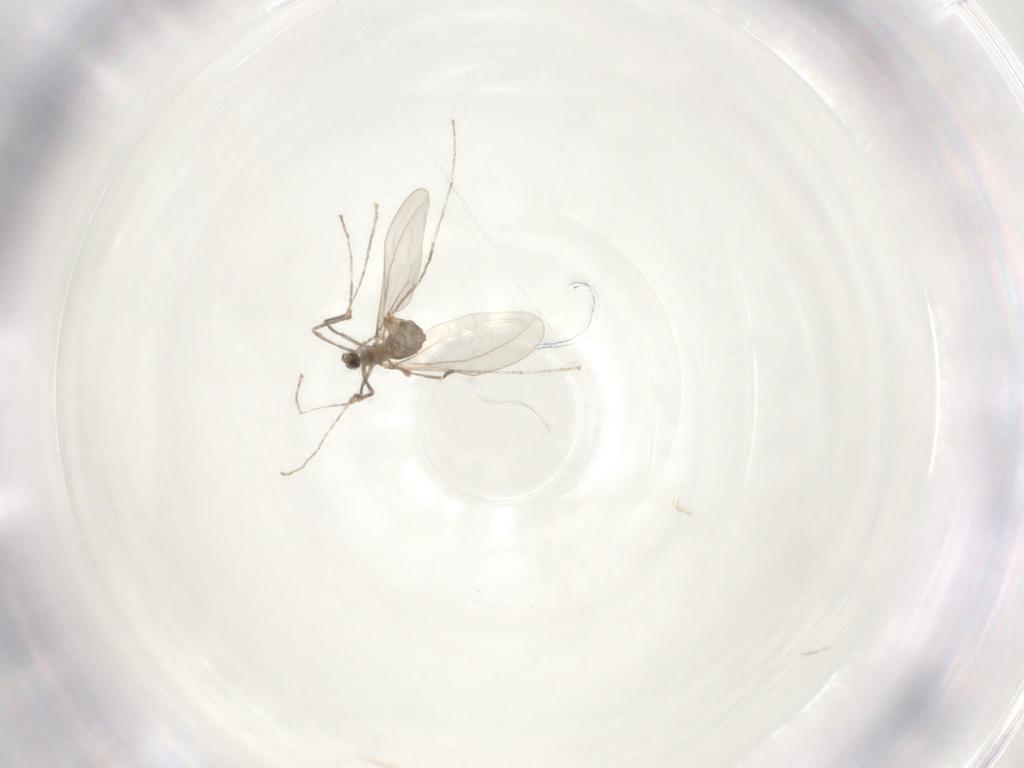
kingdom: Animalia
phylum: Arthropoda
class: Insecta
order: Diptera
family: Cecidomyiidae
